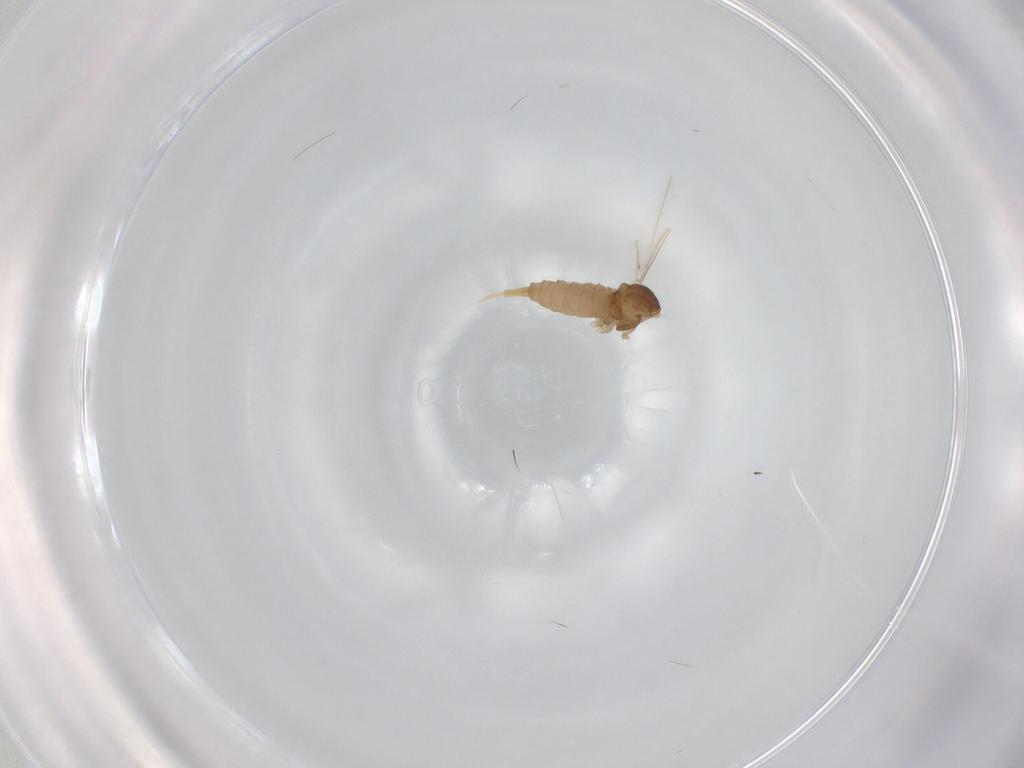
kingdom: Animalia
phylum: Arthropoda
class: Insecta
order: Diptera
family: Cecidomyiidae
